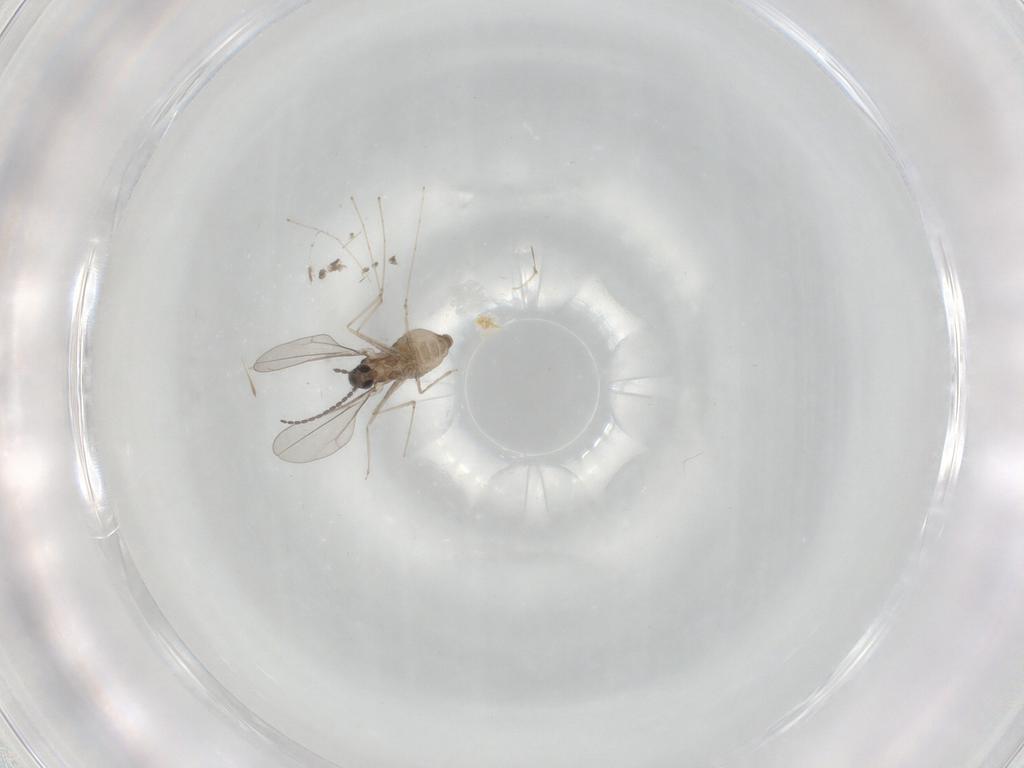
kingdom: Animalia
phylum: Arthropoda
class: Insecta
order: Diptera
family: Cecidomyiidae
